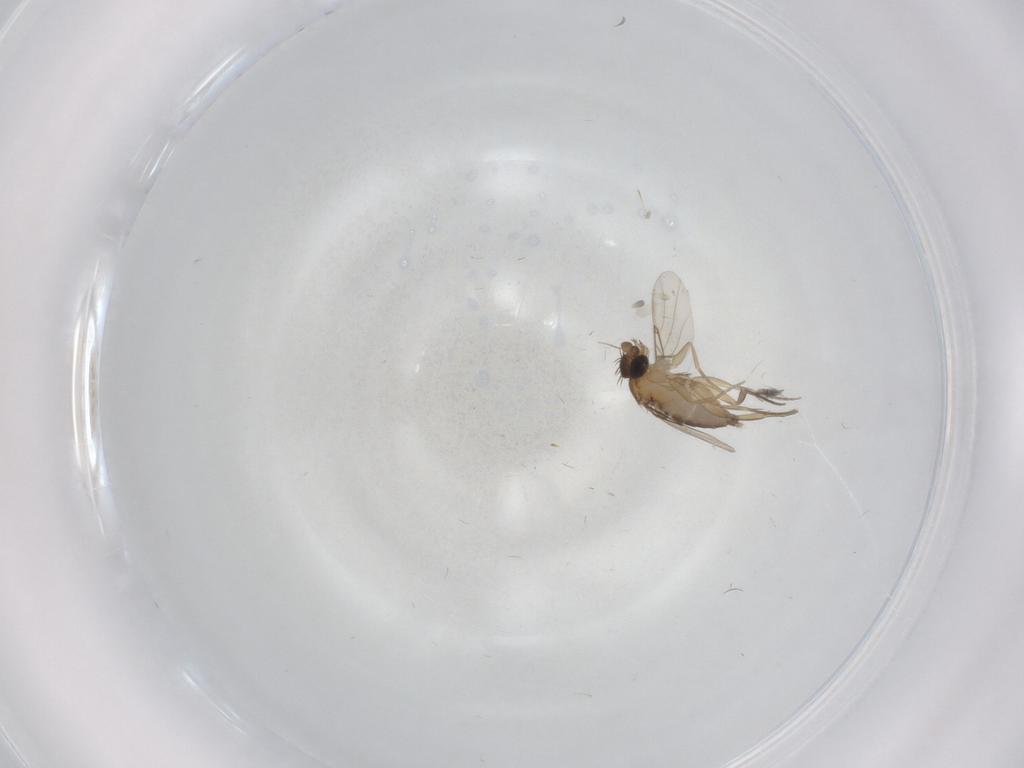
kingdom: Animalia
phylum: Arthropoda
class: Insecta
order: Diptera
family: Phoridae
